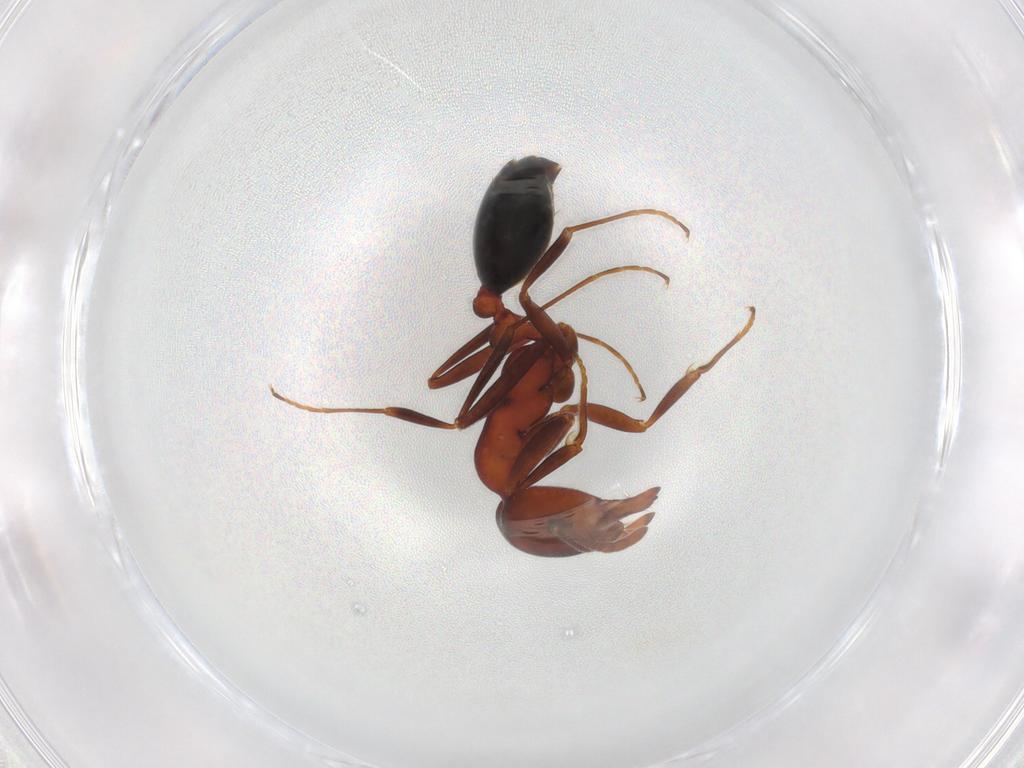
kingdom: Animalia
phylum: Arthropoda
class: Insecta
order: Hymenoptera
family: Formicidae
